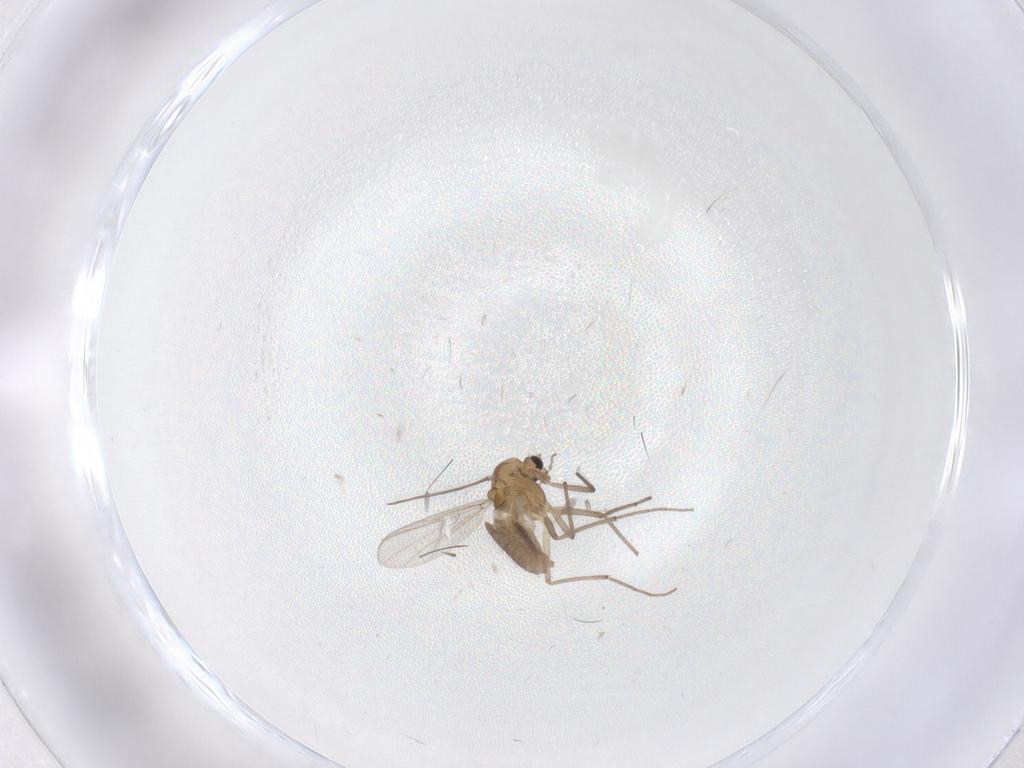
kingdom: Animalia
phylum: Arthropoda
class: Insecta
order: Diptera
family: Chironomidae
